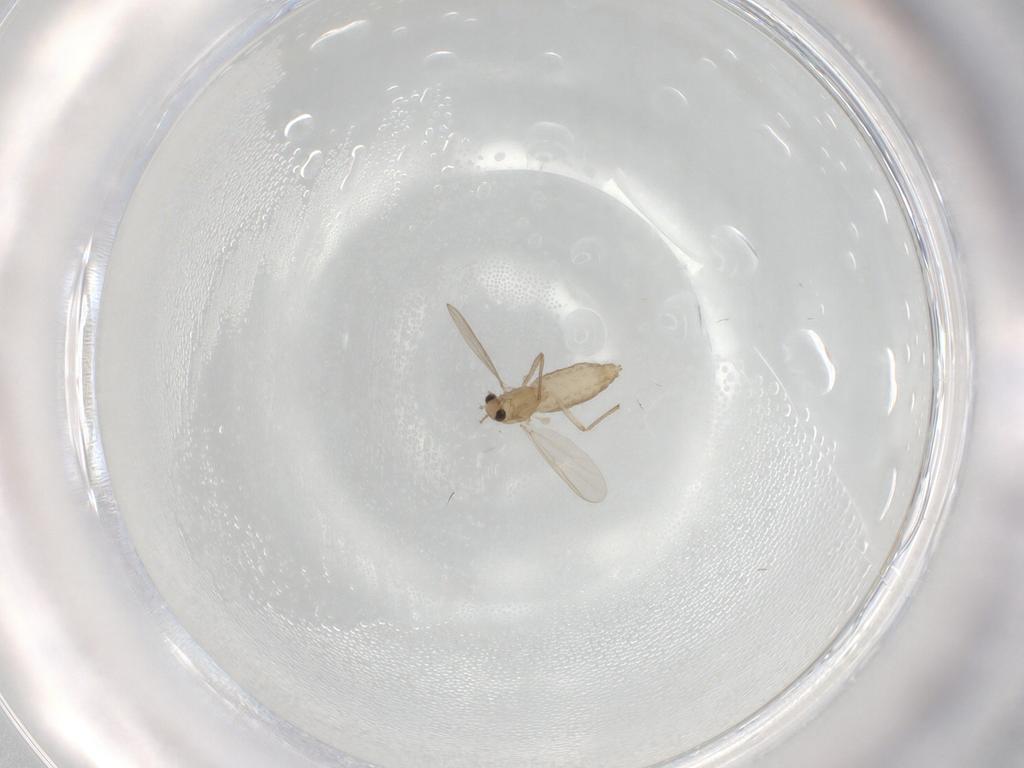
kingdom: Animalia
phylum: Arthropoda
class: Insecta
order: Diptera
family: Chironomidae
